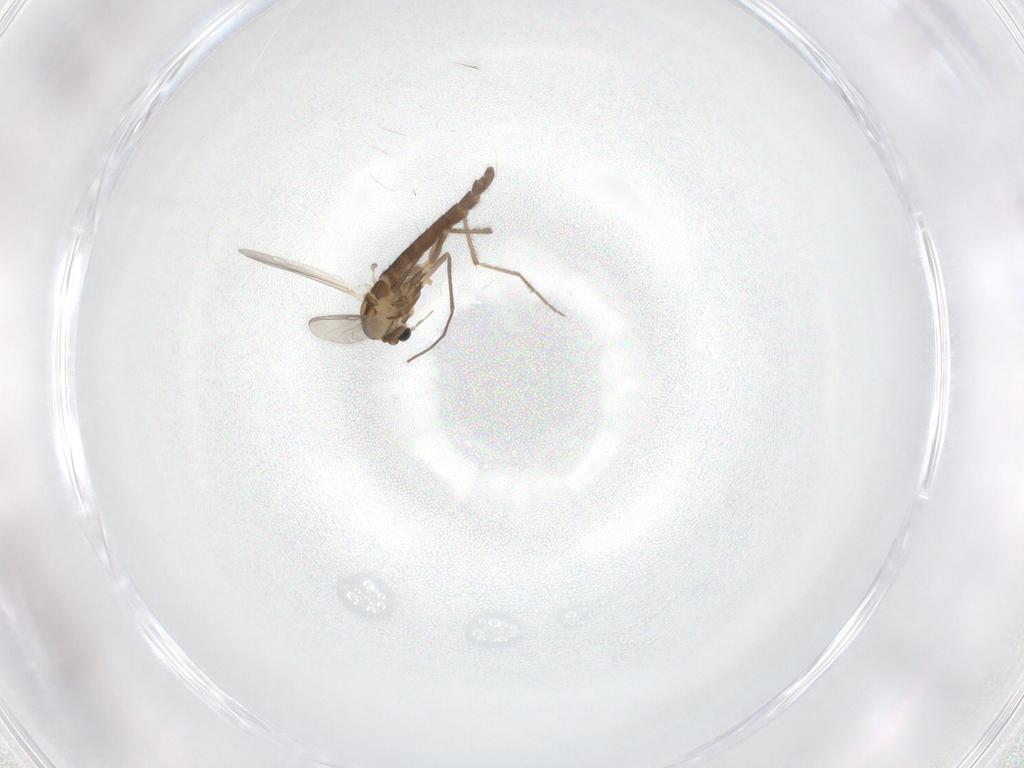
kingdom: Animalia
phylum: Arthropoda
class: Insecta
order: Diptera
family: Chironomidae
